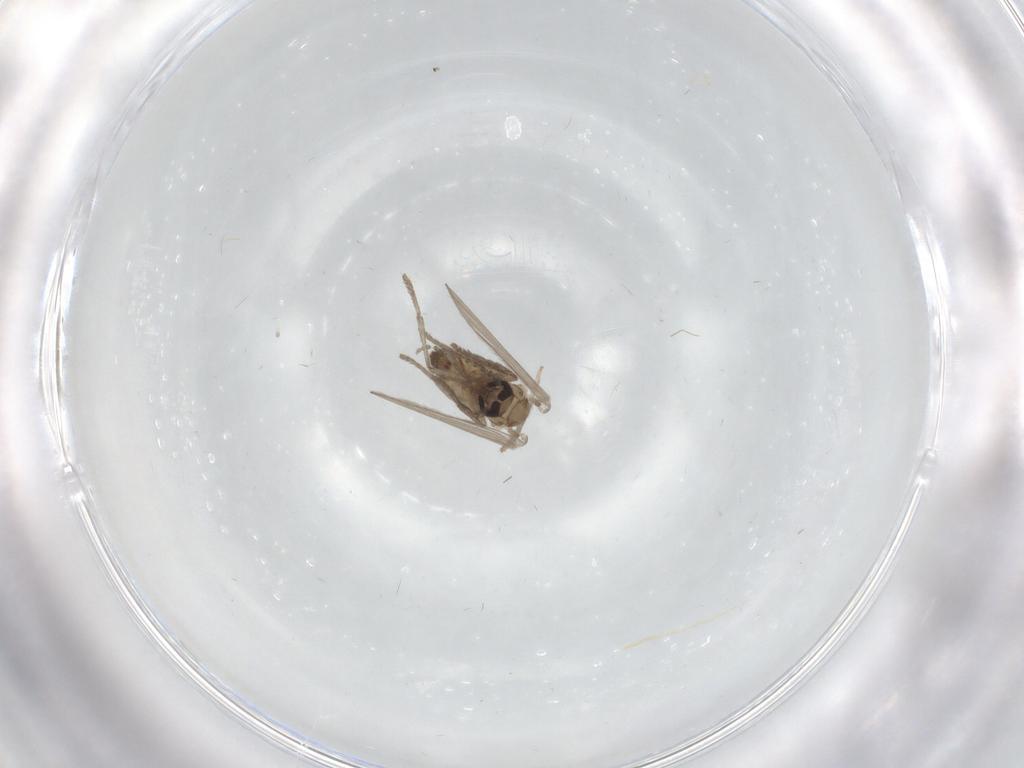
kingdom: Animalia
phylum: Arthropoda
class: Insecta
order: Diptera
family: Psychodidae
